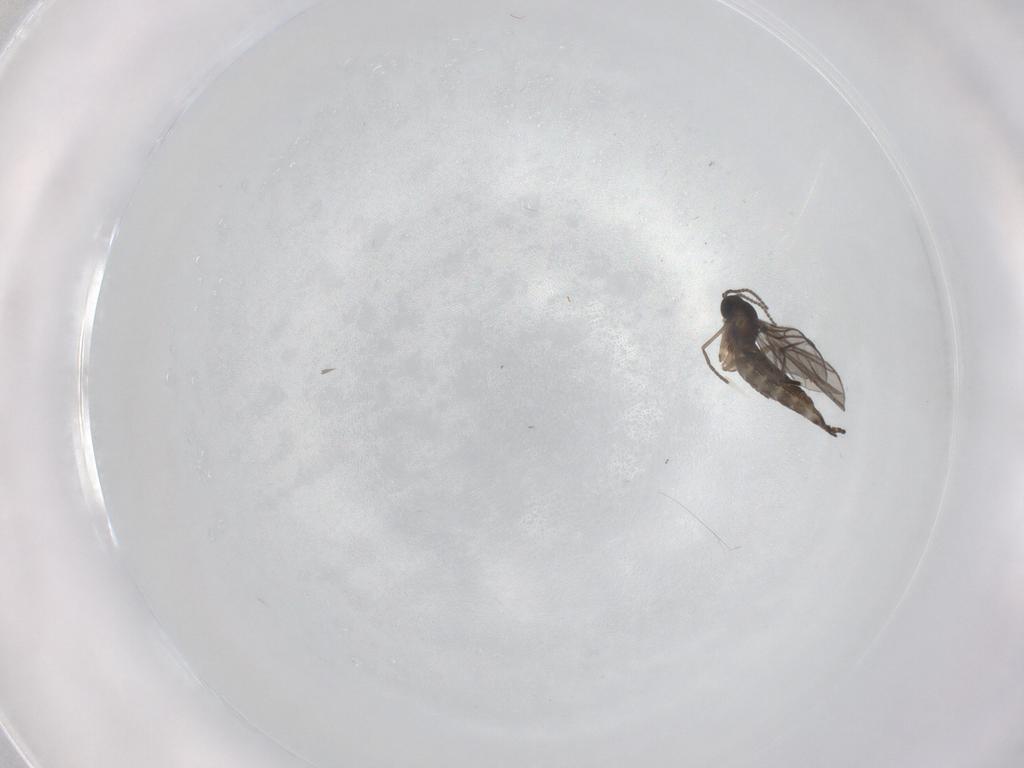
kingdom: Animalia
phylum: Arthropoda
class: Insecta
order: Diptera
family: Sciaridae
